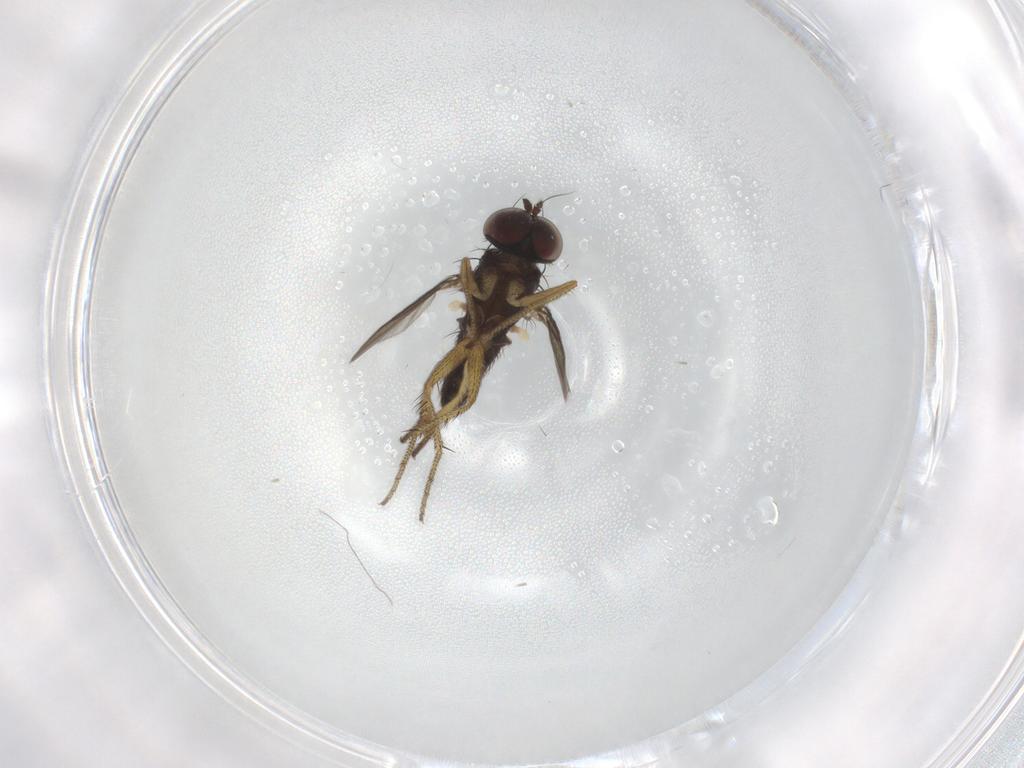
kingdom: Animalia
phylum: Arthropoda
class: Insecta
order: Diptera
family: Dolichopodidae
